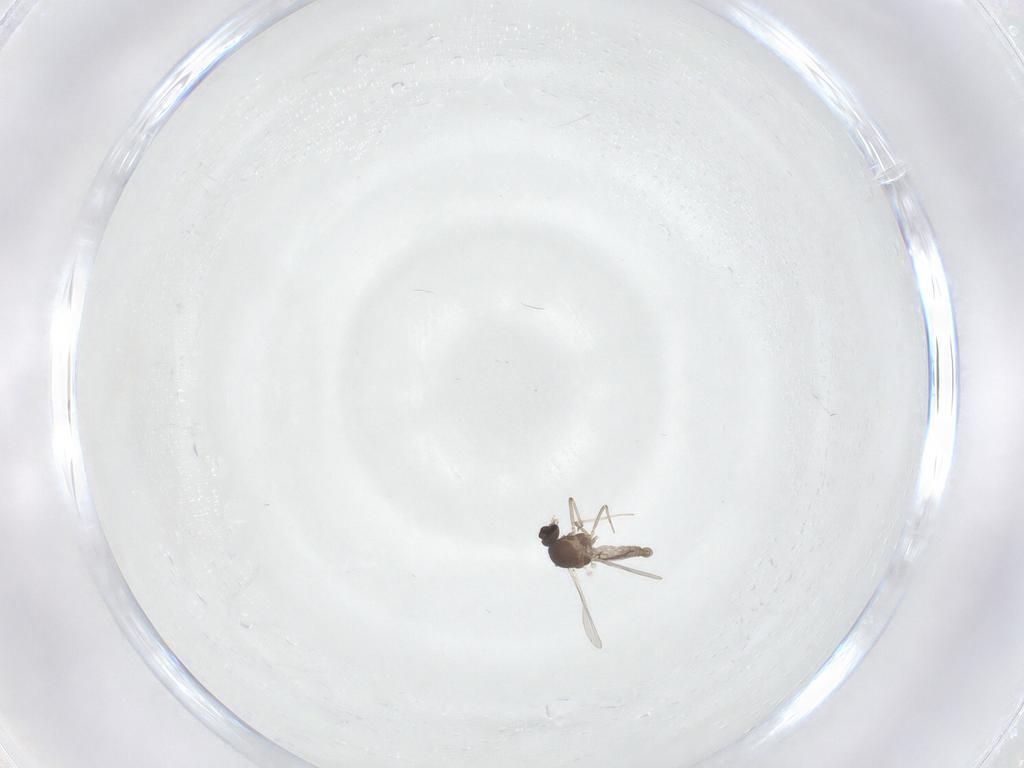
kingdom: Animalia
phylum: Arthropoda
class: Insecta
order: Diptera
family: Ceratopogonidae
